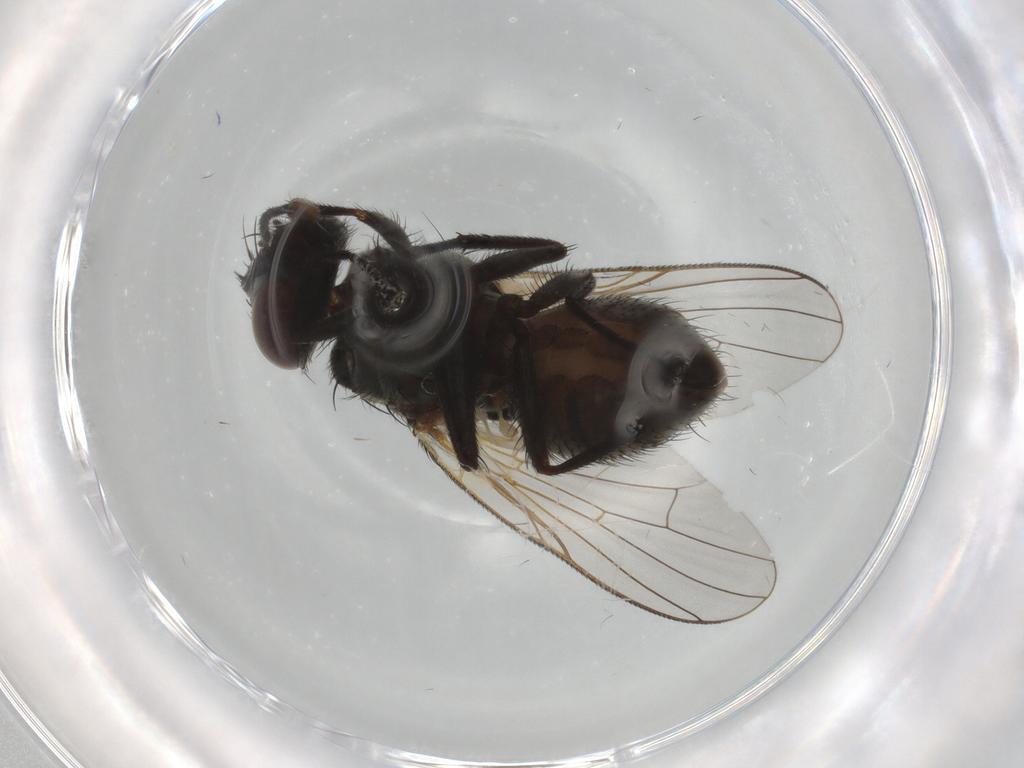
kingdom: Animalia
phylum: Arthropoda
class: Insecta
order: Diptera
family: Muscidae
